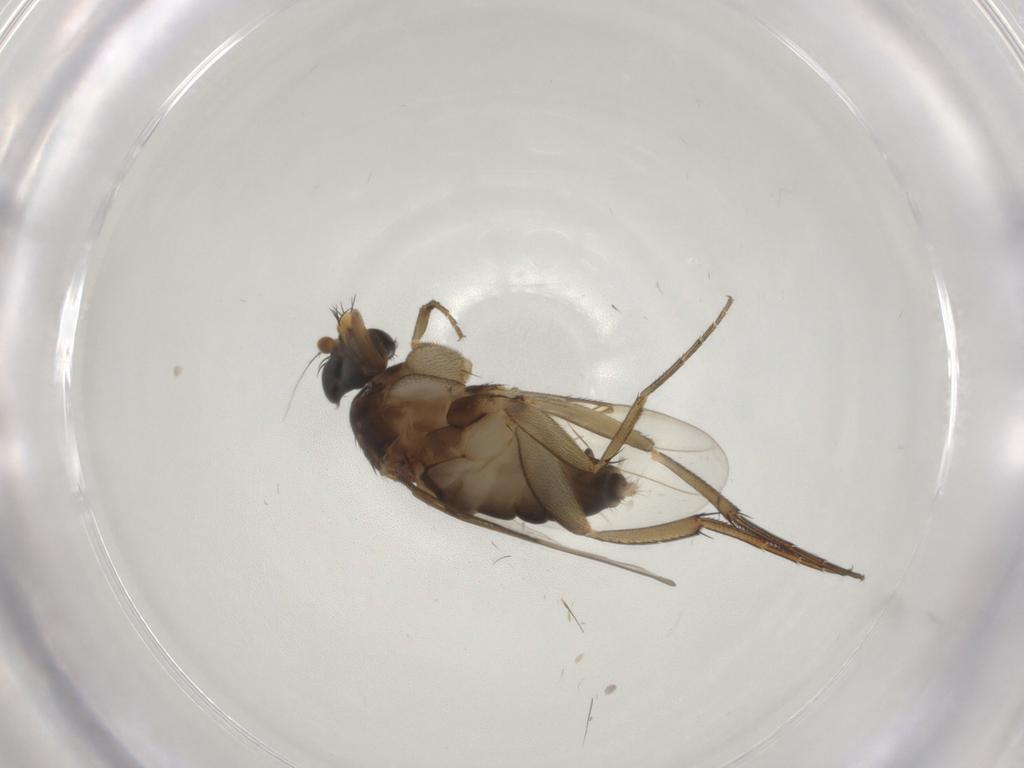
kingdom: Animalia
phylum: Arthropoda
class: Insecta
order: Diptera
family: Phoridae
